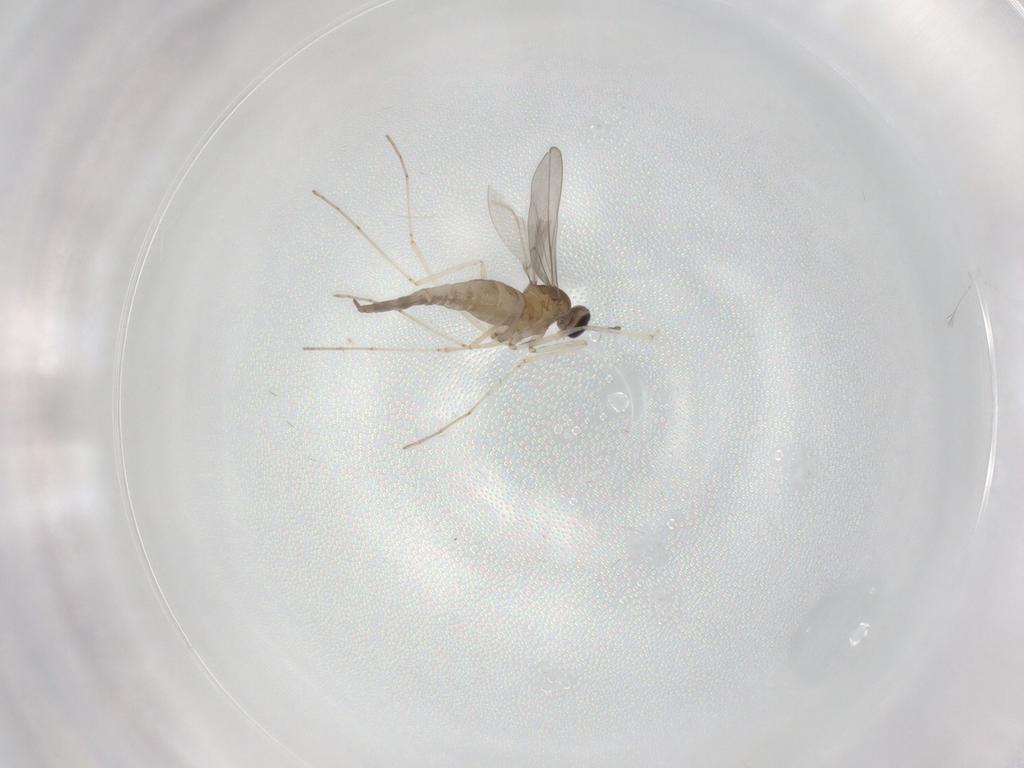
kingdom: Animalia
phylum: Arthropoda
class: Insecta
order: Diptera
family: Cecidomyiidae
